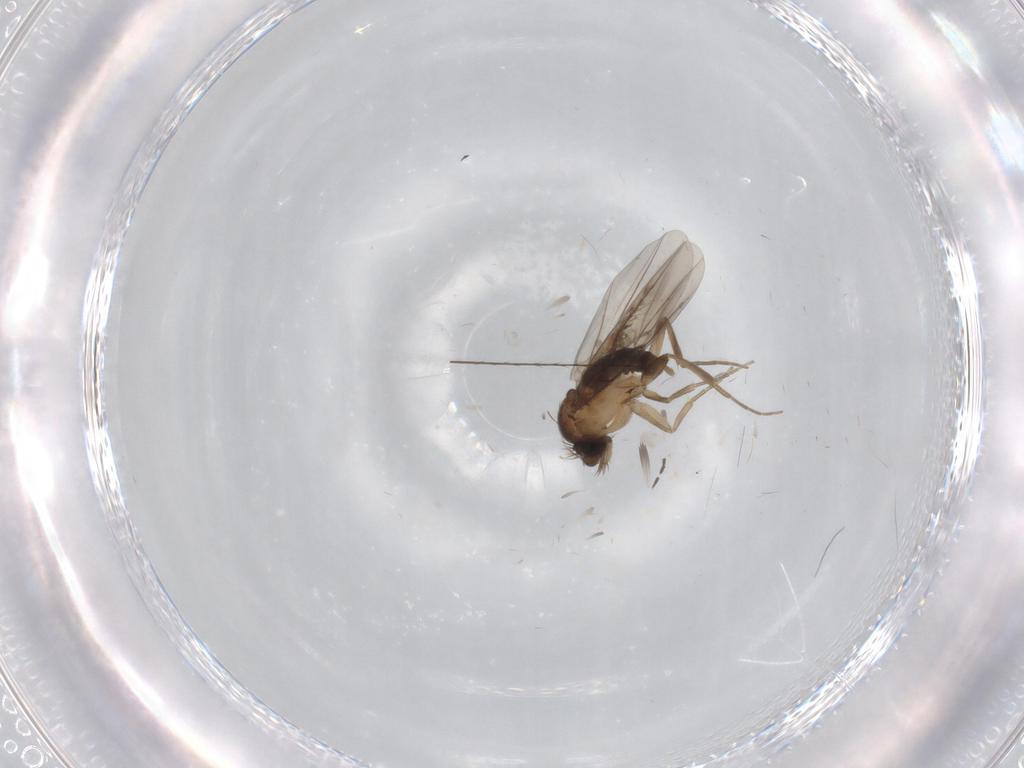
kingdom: Animalia
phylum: Arthropoda
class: Insecta
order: Diptera
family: Phoridae
